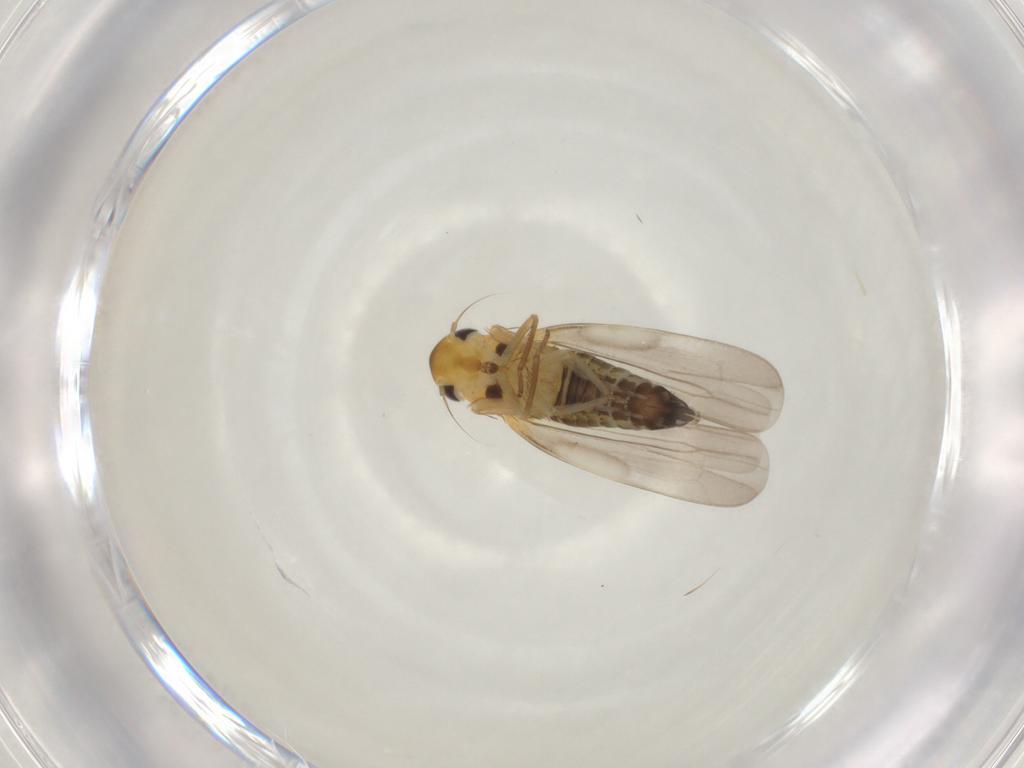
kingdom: Animalia
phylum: Arthropoda
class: Insecta
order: Hemiptera
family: Cicadellidae
